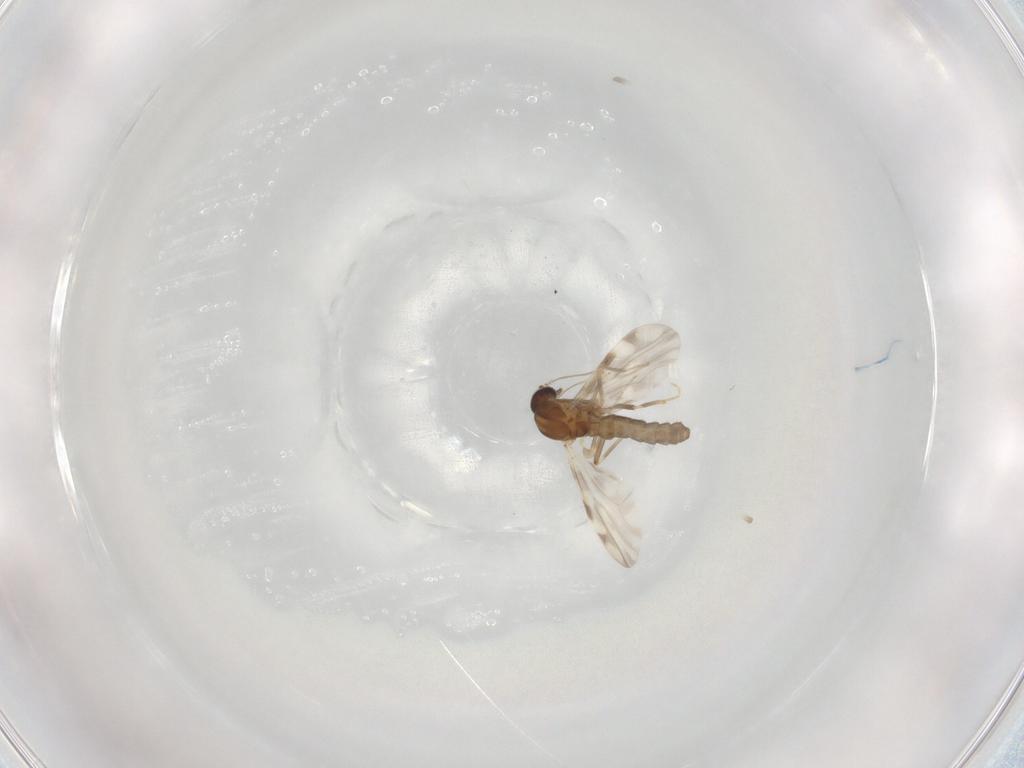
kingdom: Animalia
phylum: Arthropoda
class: Insecta
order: Diptera
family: Ceratopogonidae
